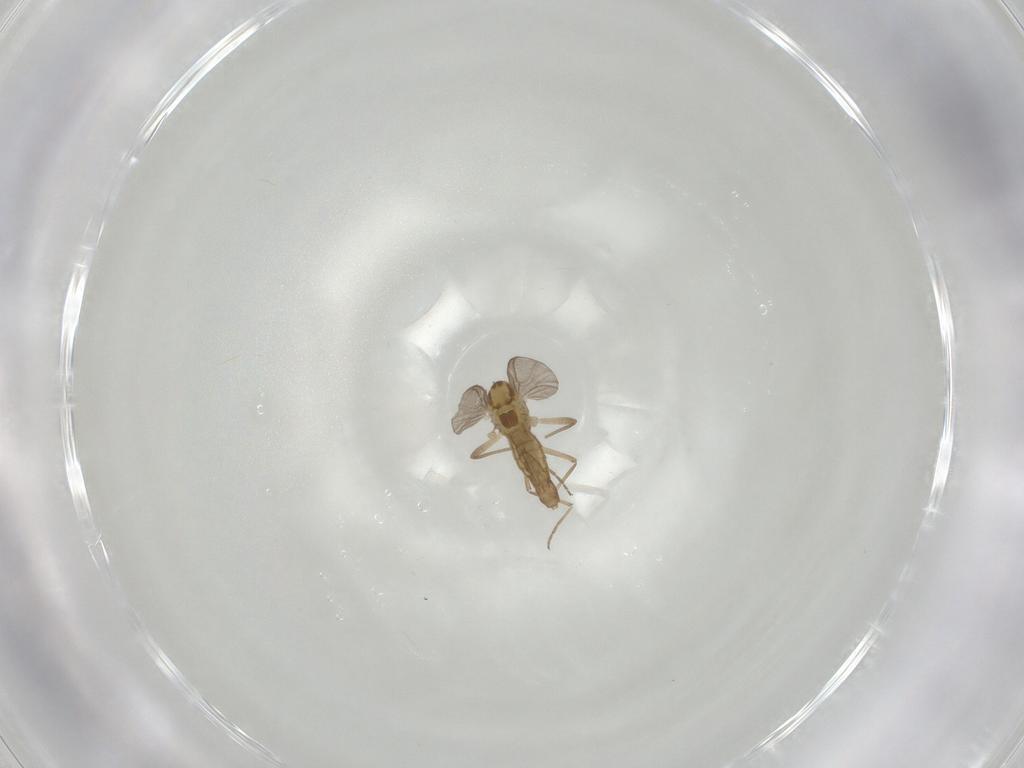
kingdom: Animalia
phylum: Arthropoda
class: Insecta
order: Diptera
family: Chironomidae
